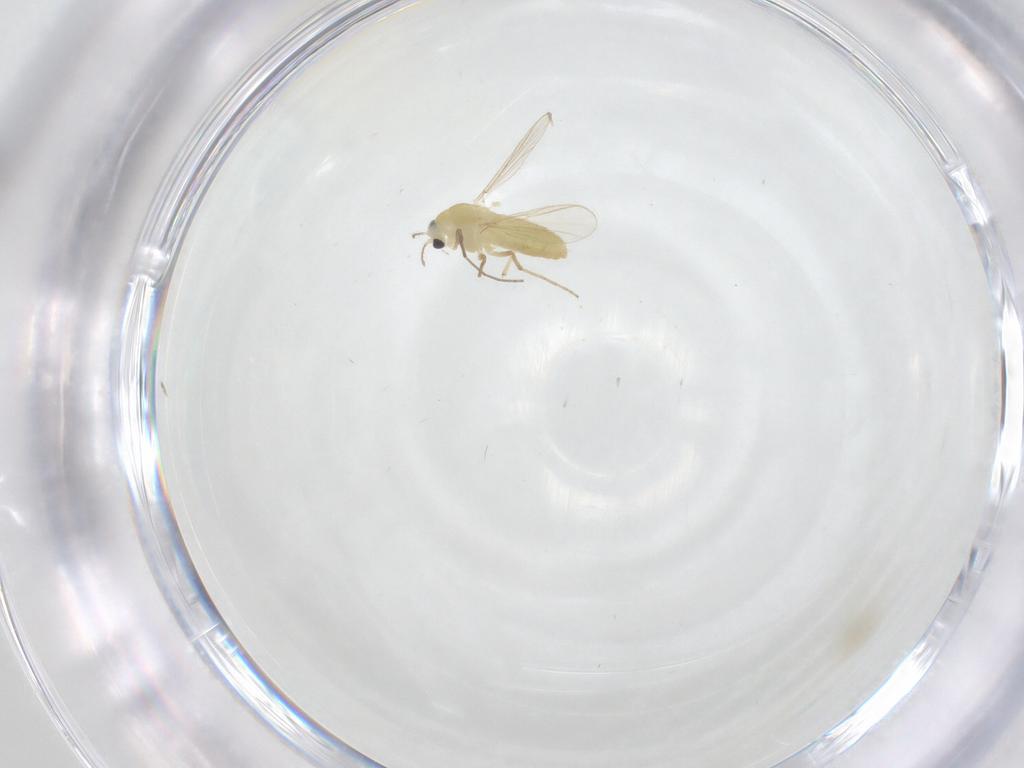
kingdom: Animalia
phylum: Arthropoda
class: Insecta
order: Diptera
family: Chironomidae
